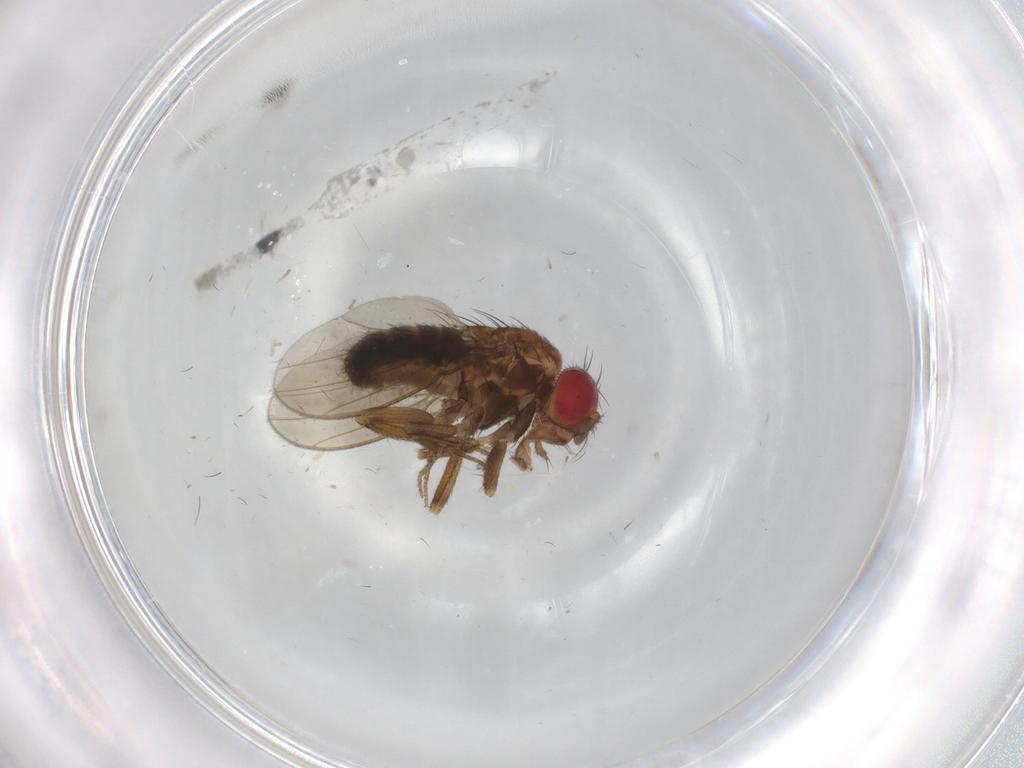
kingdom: Animalia
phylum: Arthropoda
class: Insecta
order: Diptera
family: Drosophilidae
